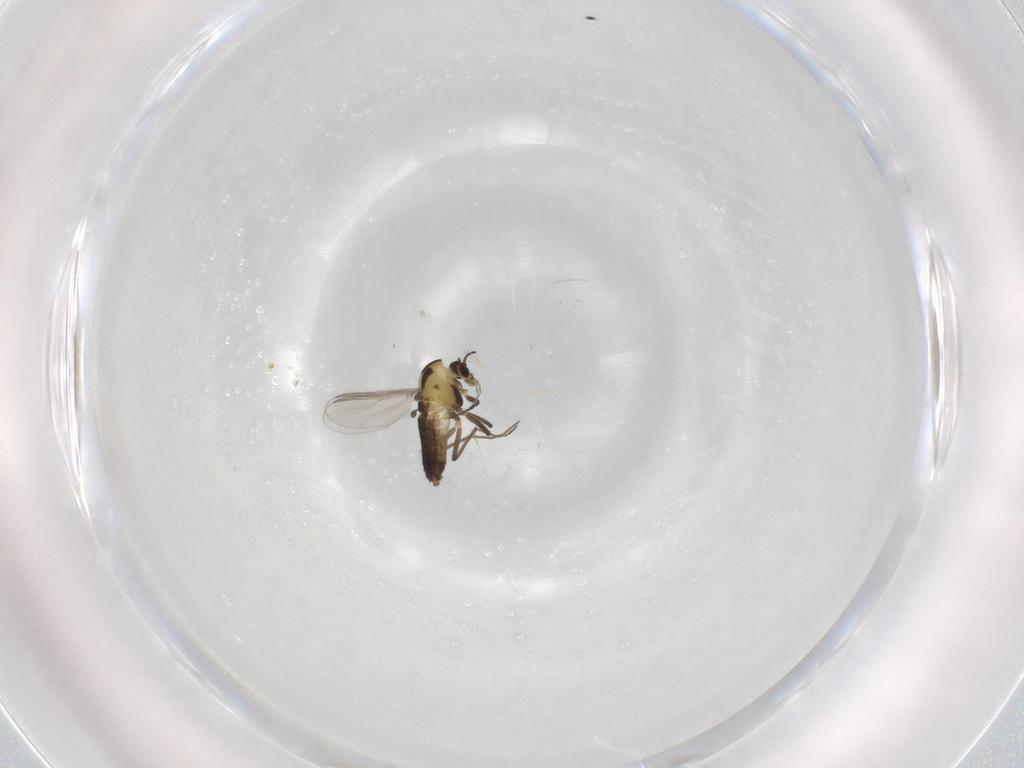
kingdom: Animalia
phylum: Arthropoda
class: Insecta
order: Diptera
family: Chironomidae
